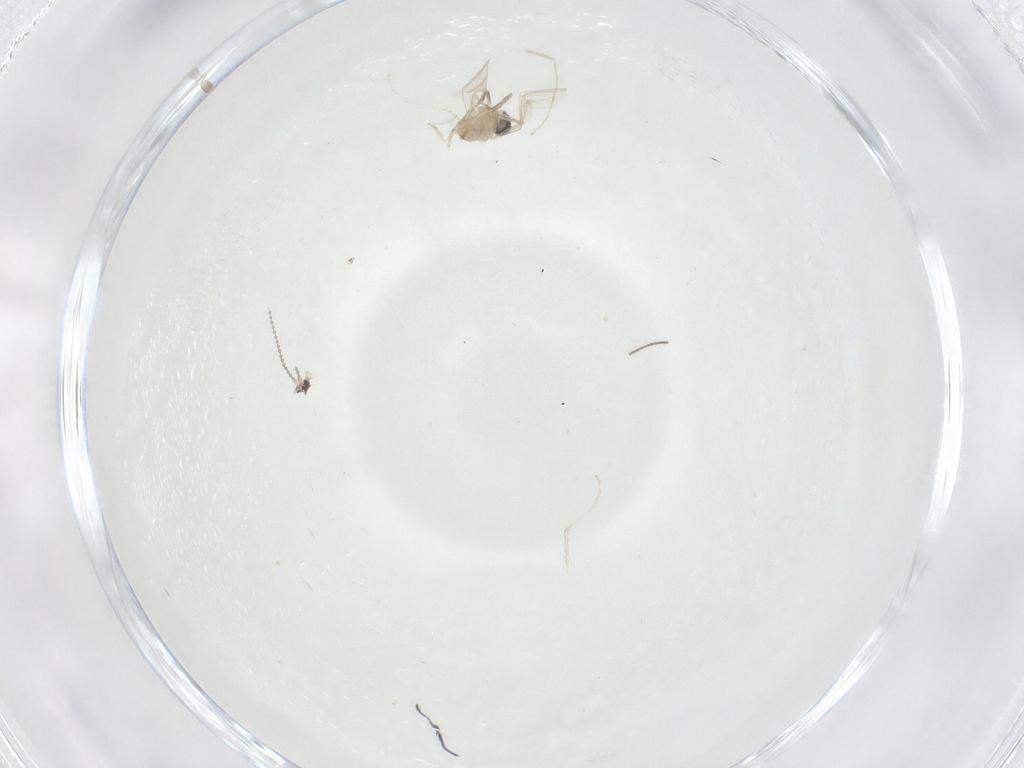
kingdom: Animalia
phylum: Arthropoda
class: Insecta
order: Diptera
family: Cecidomyiidae
